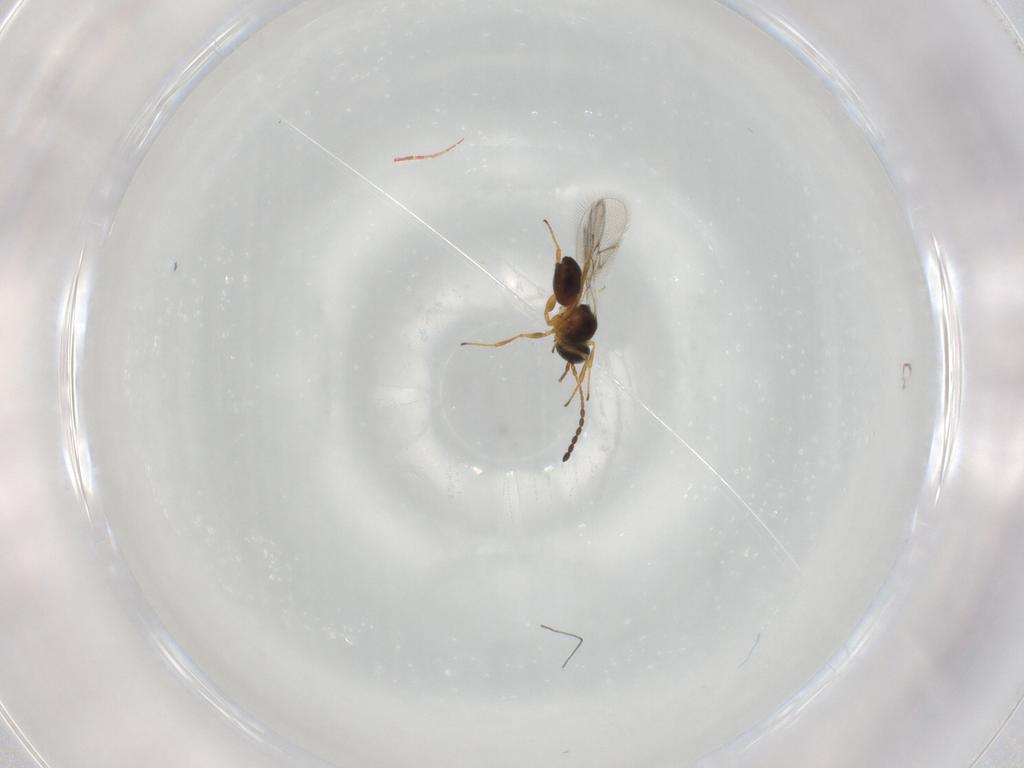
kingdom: Animalia
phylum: Arthropoda
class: Insecta
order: Hymenoptera
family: Figitidae
